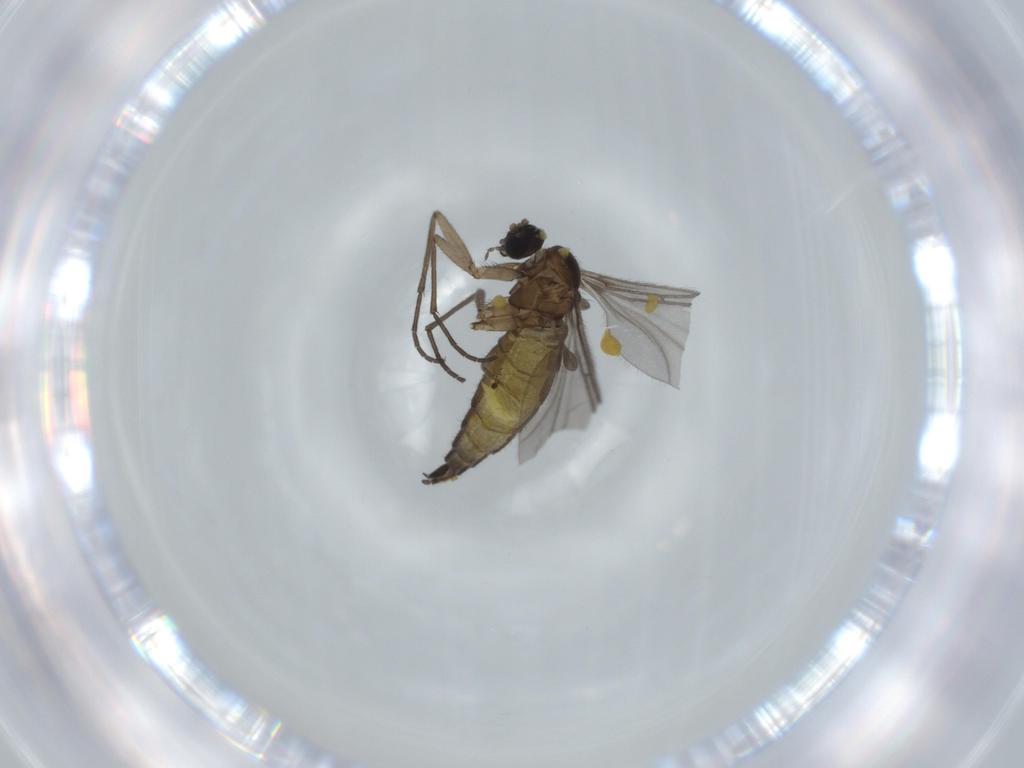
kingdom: Animalia
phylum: Arthropoda
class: Insecta
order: Diptera
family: Sciaridae
